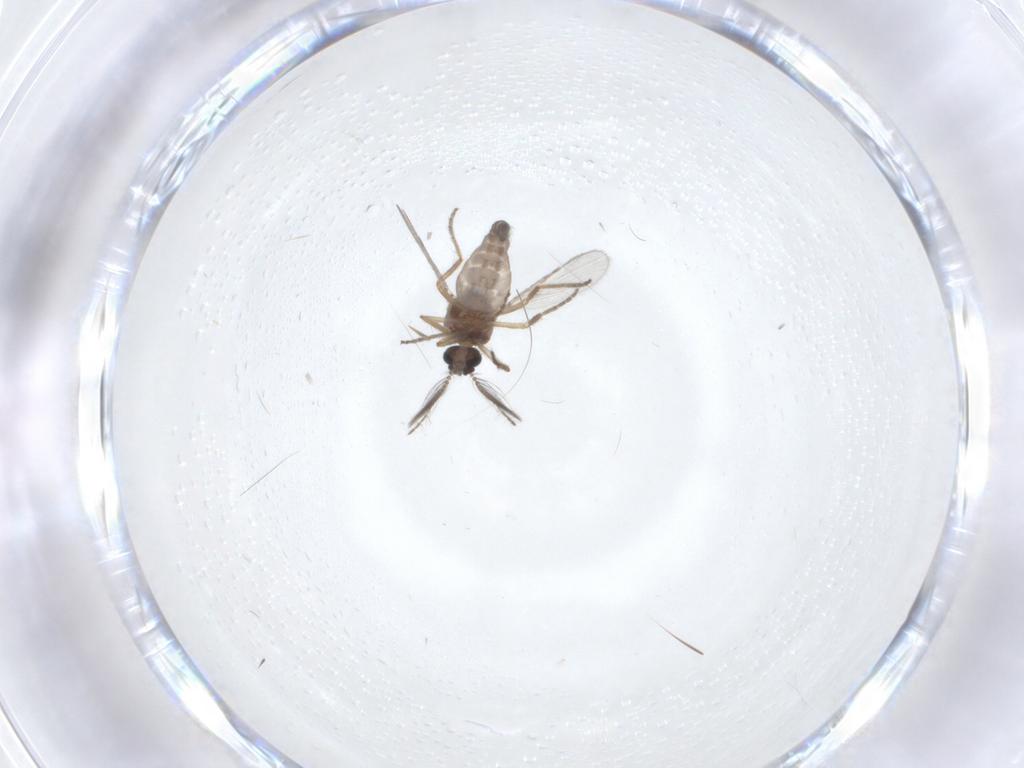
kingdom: Animalia
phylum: Arthropoda
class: Insecta
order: Diptera
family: Ceratopogonidae
